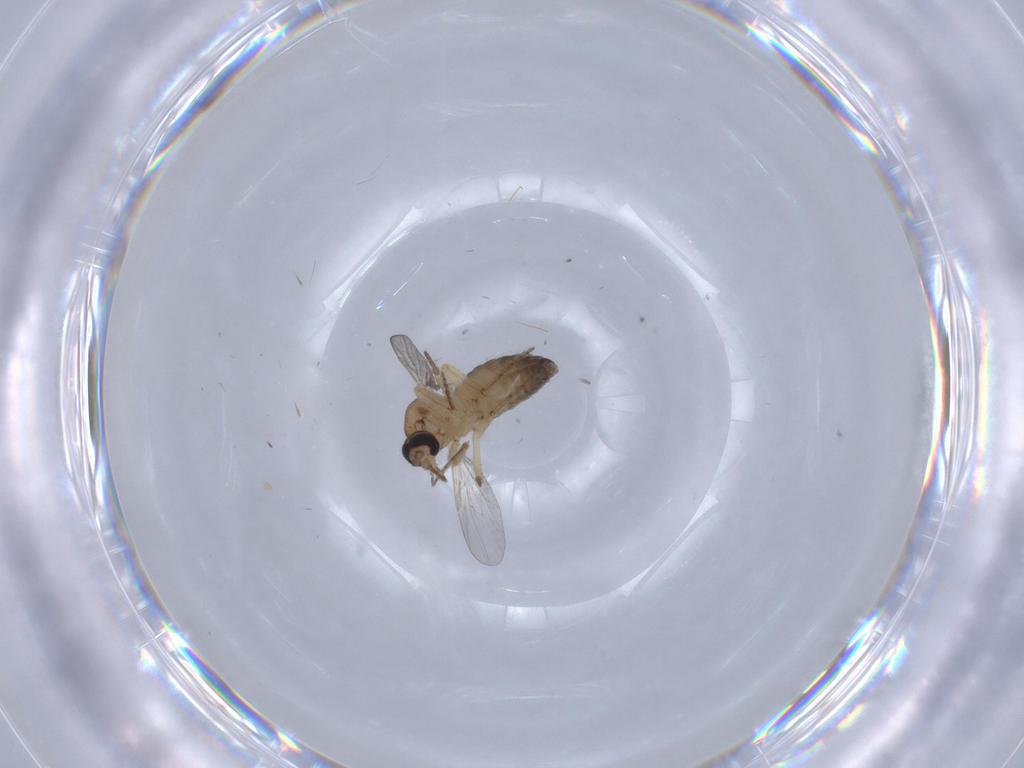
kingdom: Animalia
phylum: Arthropoda
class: Insecta
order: Diptera
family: Ceratopogonidae
